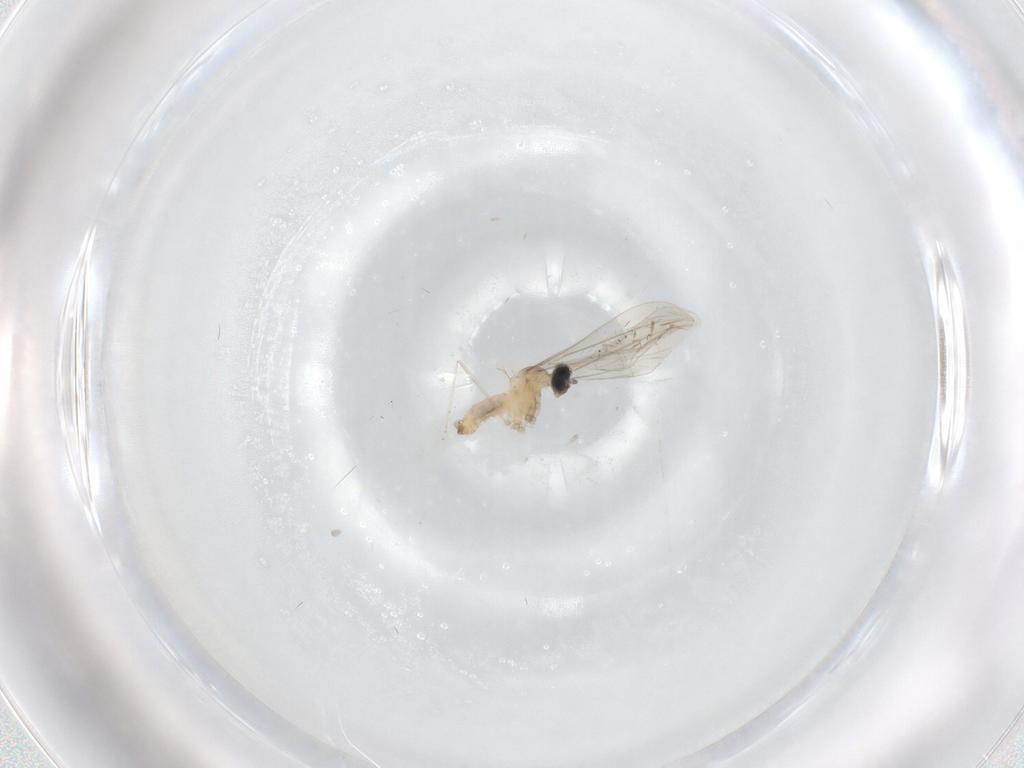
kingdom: Animalia
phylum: Arthropoda
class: Insecta
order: Diptera
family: Cecidomyiidae
